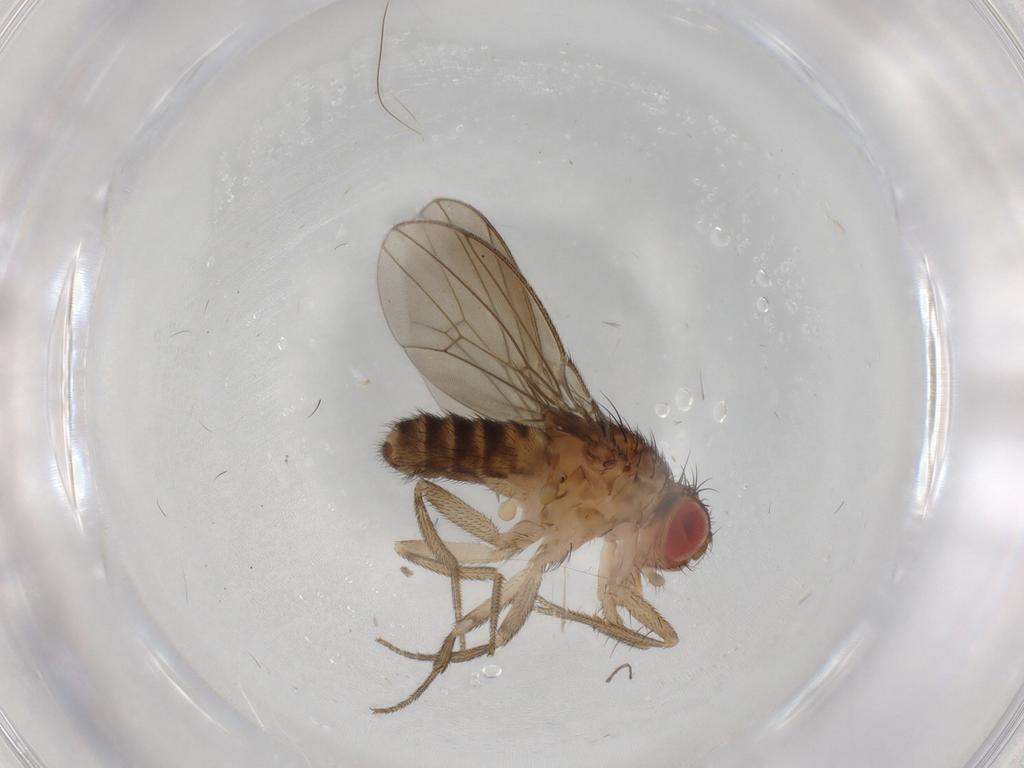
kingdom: Animalia
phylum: Arthropoda
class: Insecta
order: Diptera
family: Drosophilidae
